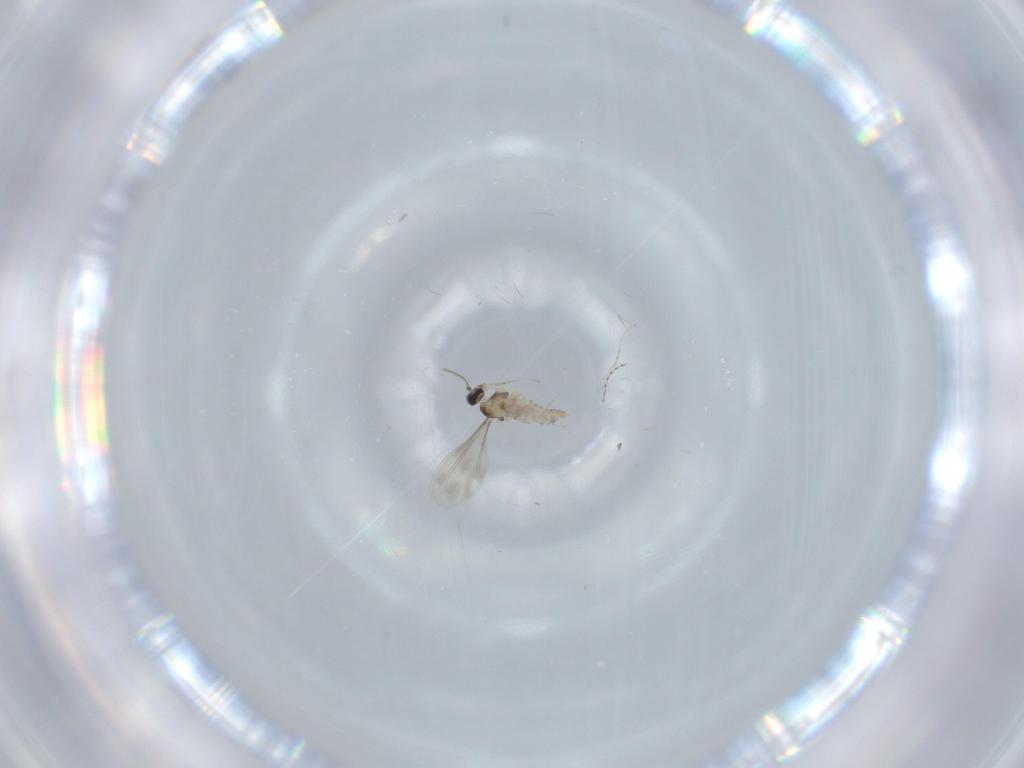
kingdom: Animalia
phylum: Arthropoda
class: Insecta
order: Diptera
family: Cecidomyiidae
